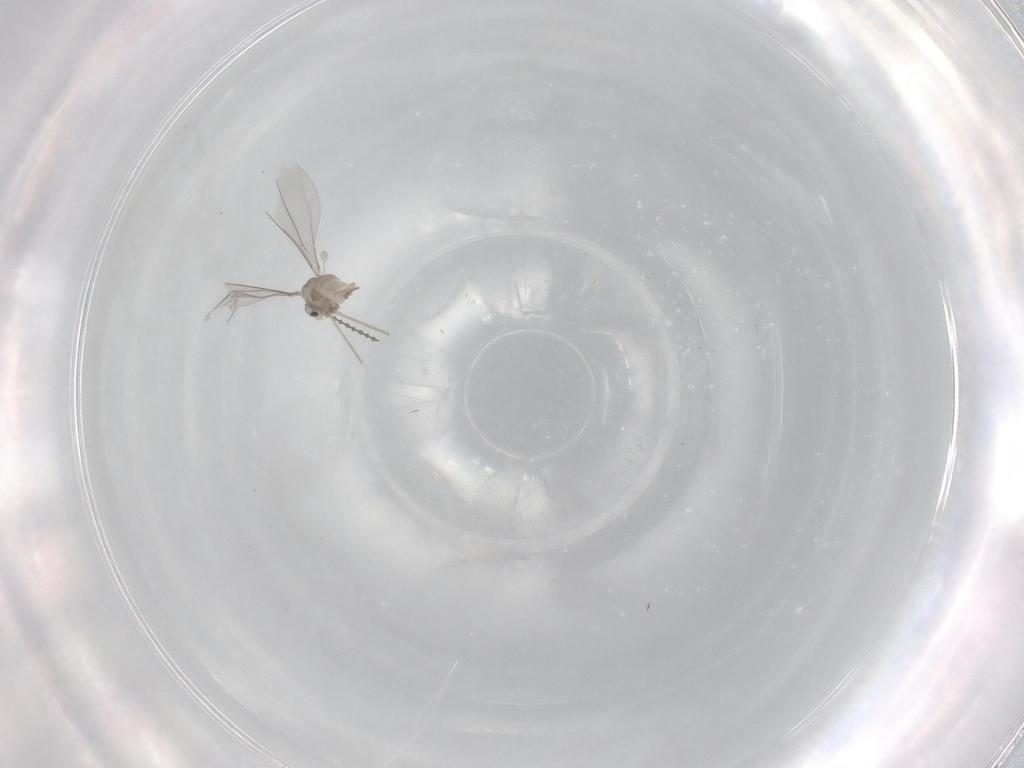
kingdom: Animalia
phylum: Arthropoda
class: Insecta
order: Diptera
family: Cecidomyiidae
